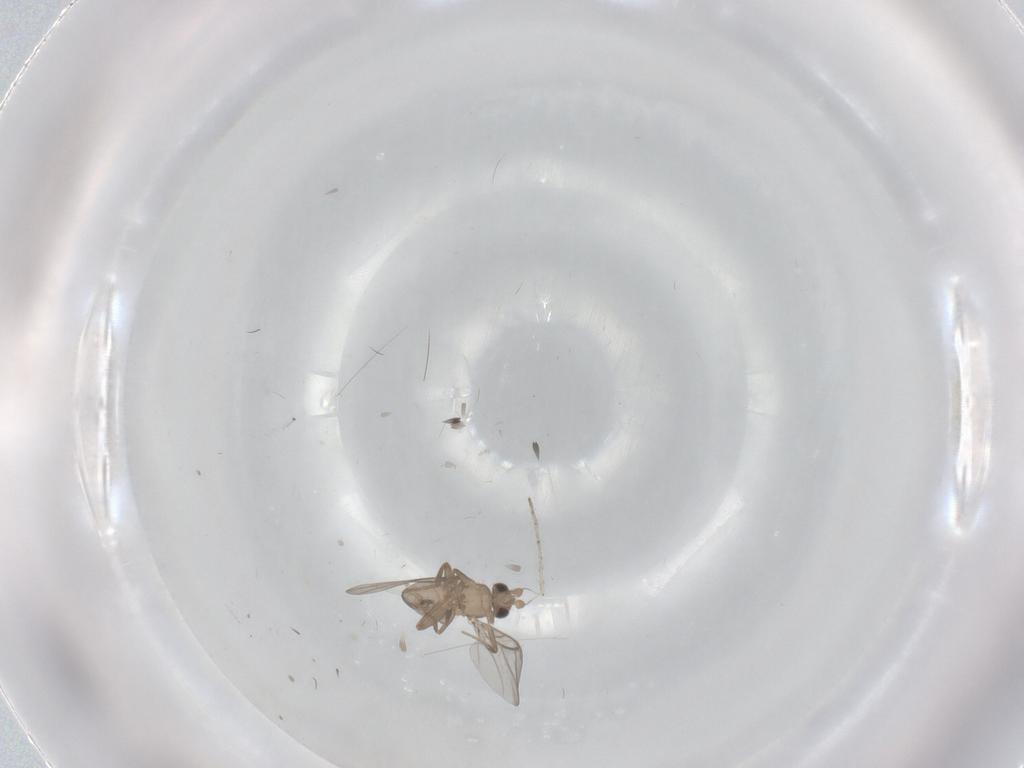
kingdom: Animalia
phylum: Arthropoda
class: Insecta
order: Diptera
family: Cecidomyiidae
